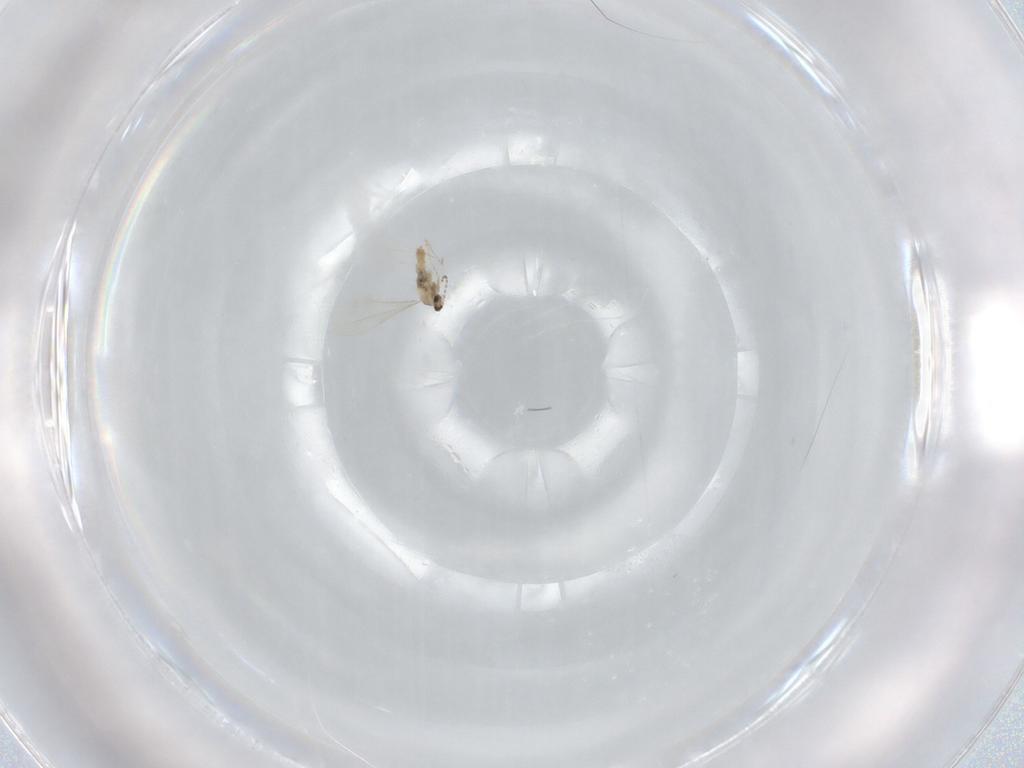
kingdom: Animalia
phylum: Arthropoda
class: Insecta
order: Diptera
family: Cecidomyiidae
